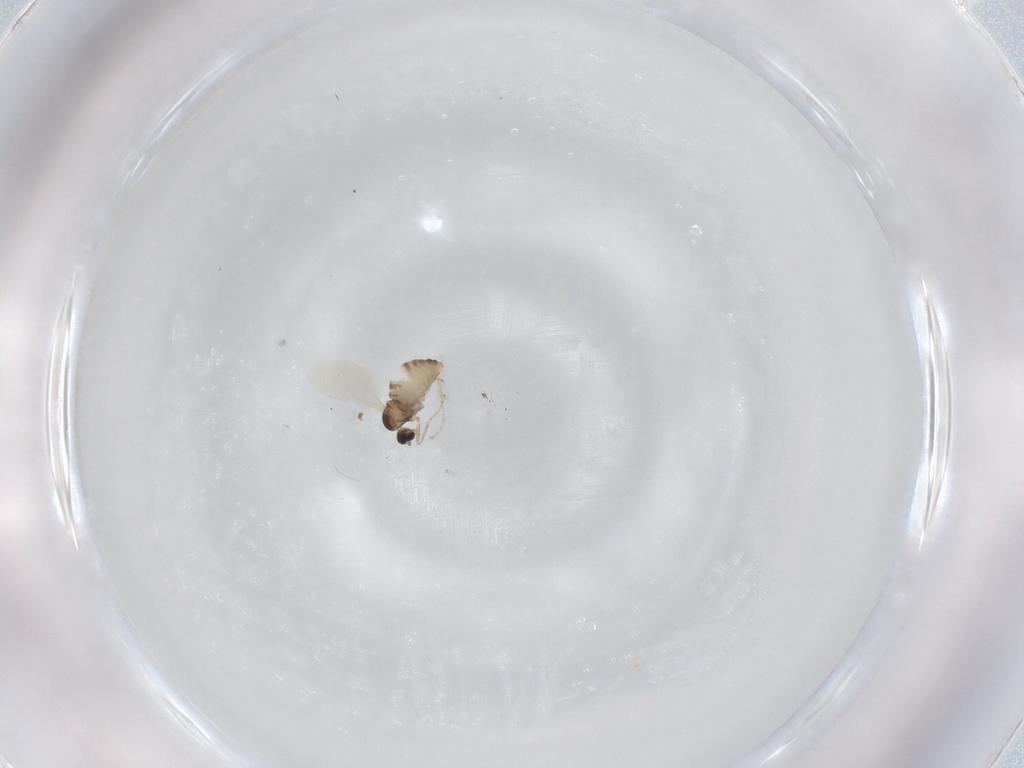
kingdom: Animalia
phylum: Arthropoda
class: Insecta
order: Diptera
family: Cecidomyiidae
